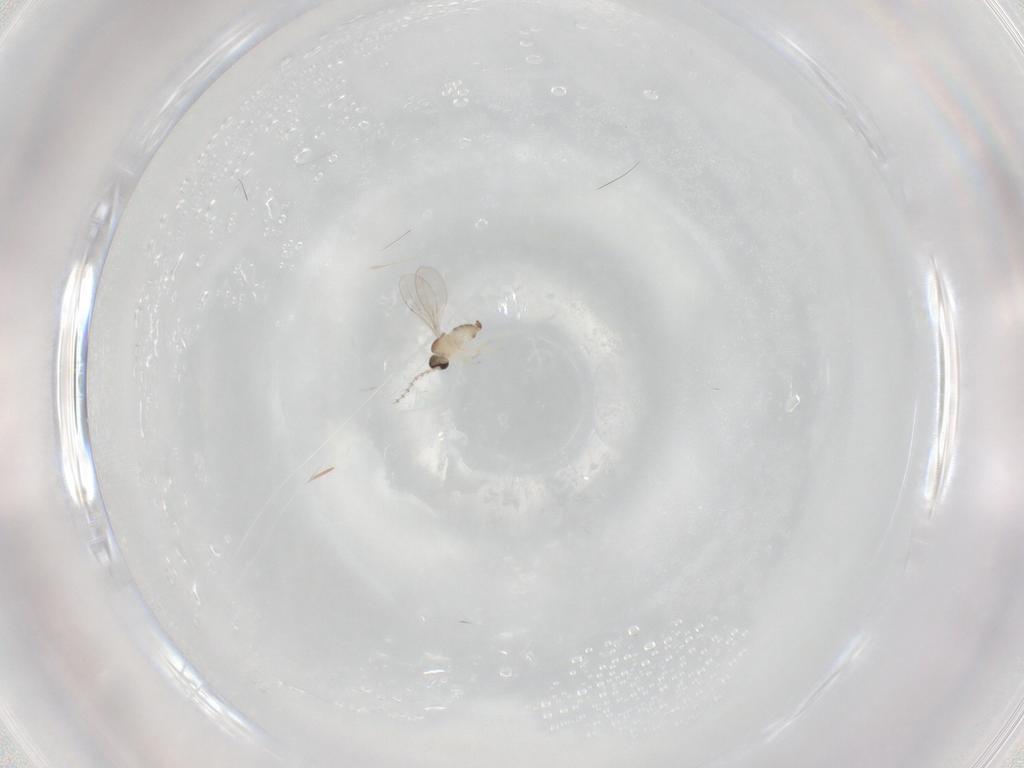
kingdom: Animalia
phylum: Arthropoda
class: Insecta
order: Diptera
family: Cecidomyiidae
